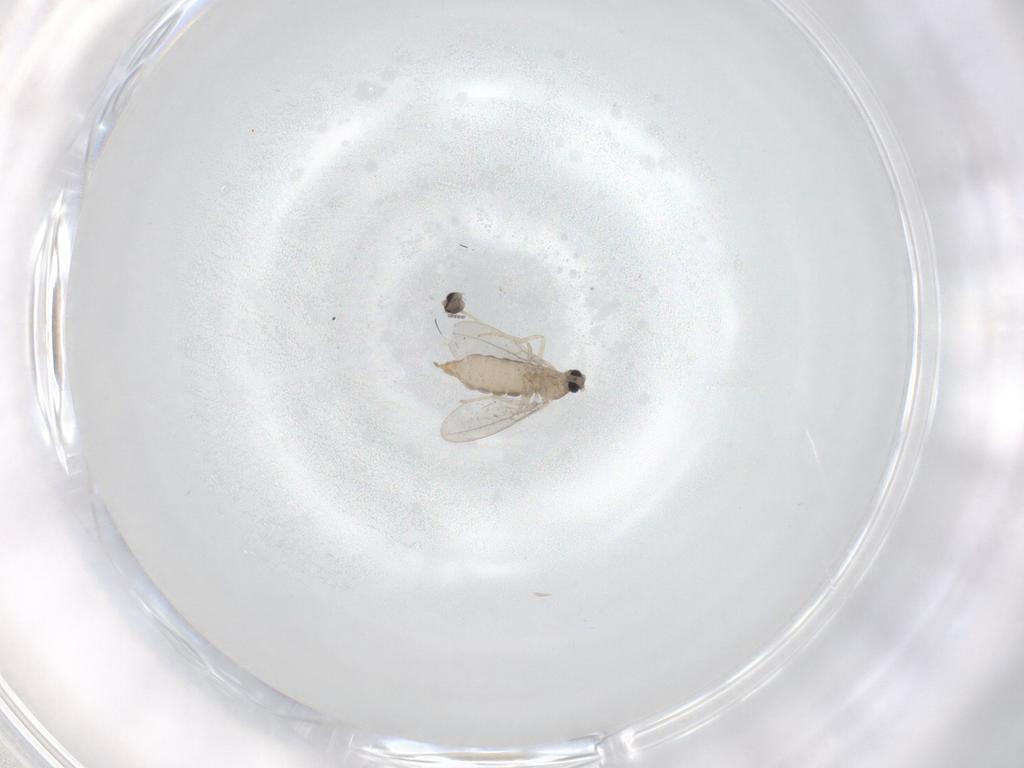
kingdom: Animalia
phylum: Arthropoda
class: Insecta
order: Diptera
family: Cecidomyiidae
